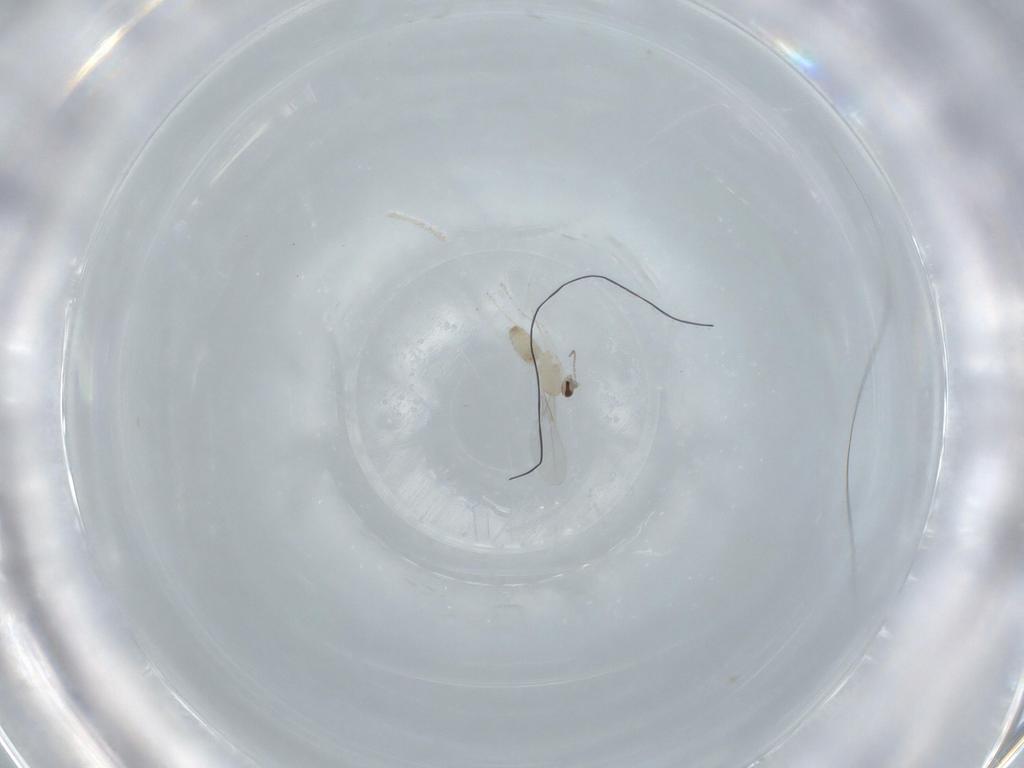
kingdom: Animalia
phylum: Arthropoda
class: Insecta
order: Diptera
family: Cecidomyiidae
